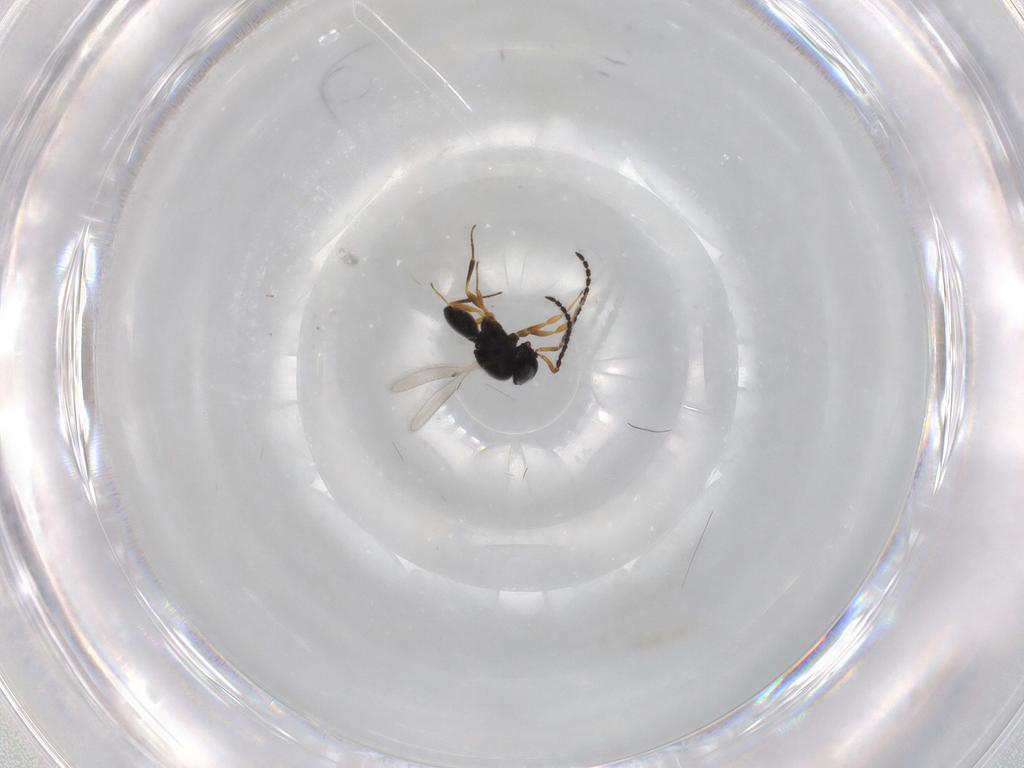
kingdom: Animalia
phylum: Arthropoda
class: Insecta
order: Hymenoptera
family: Scelionidae
